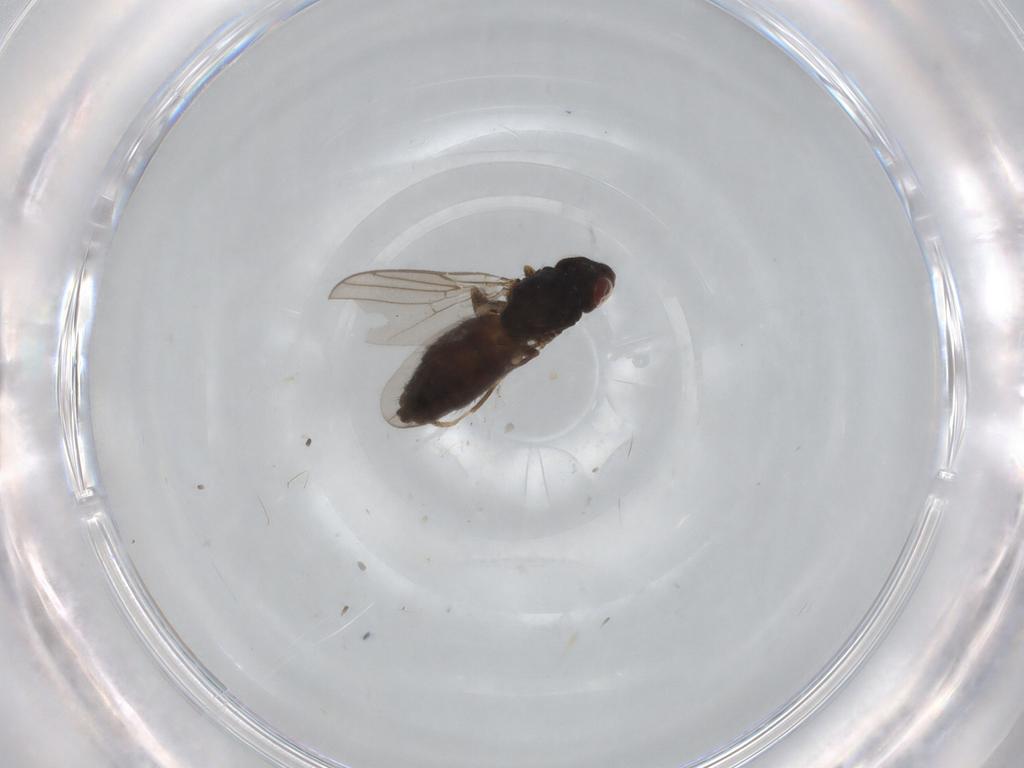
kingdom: Animalia
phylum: Arthropoda
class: Insecta
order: Diptera
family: Chloropidae
